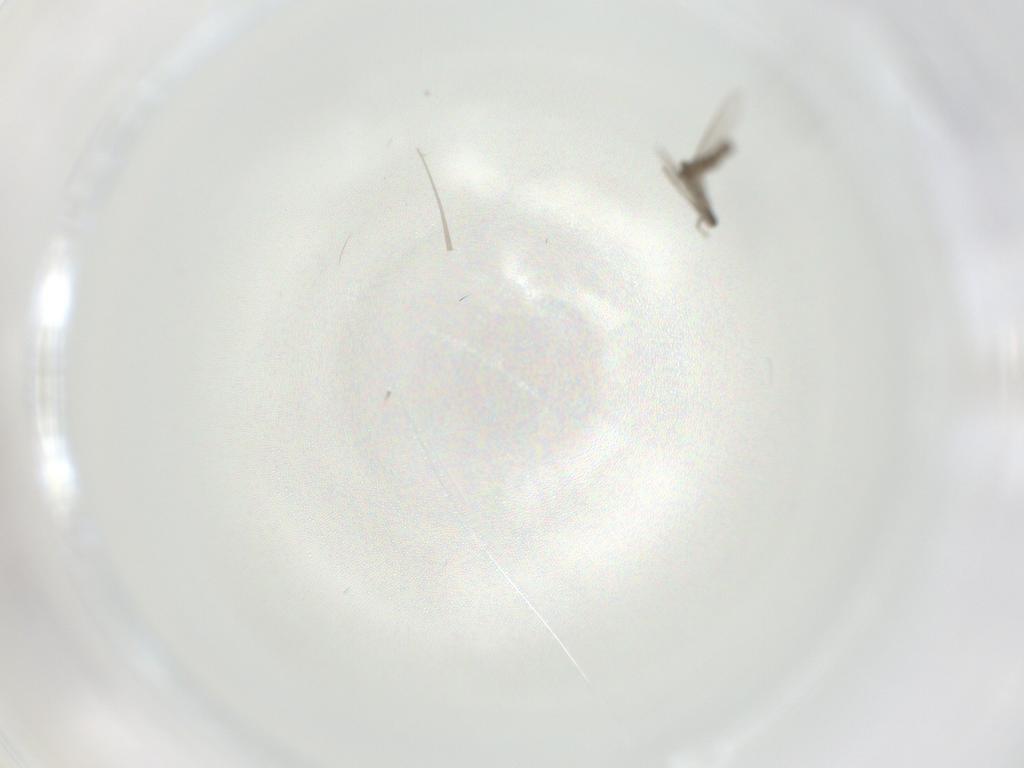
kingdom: Animalia
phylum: Arthropoda
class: Insecta
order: Diptera
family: Chironomidae
